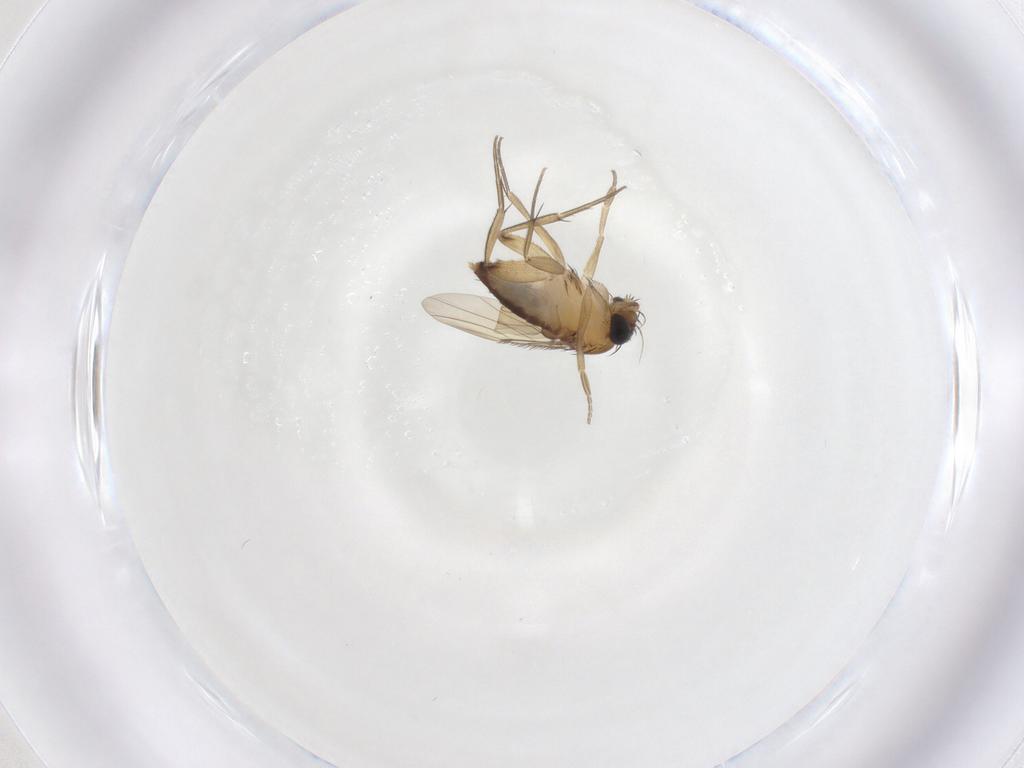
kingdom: Animalia
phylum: Arthropoda
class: Insecta
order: Diptera
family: Phoridae
